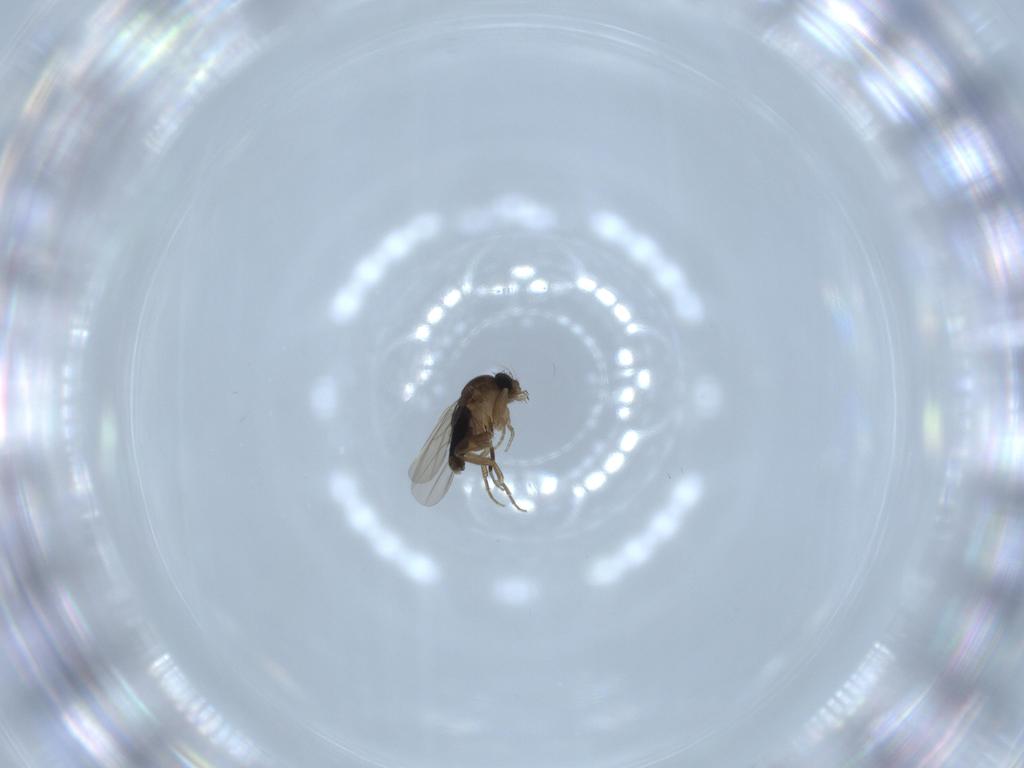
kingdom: Animalia
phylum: Arthropoda
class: Insecta
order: Diptera
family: Phoridae
